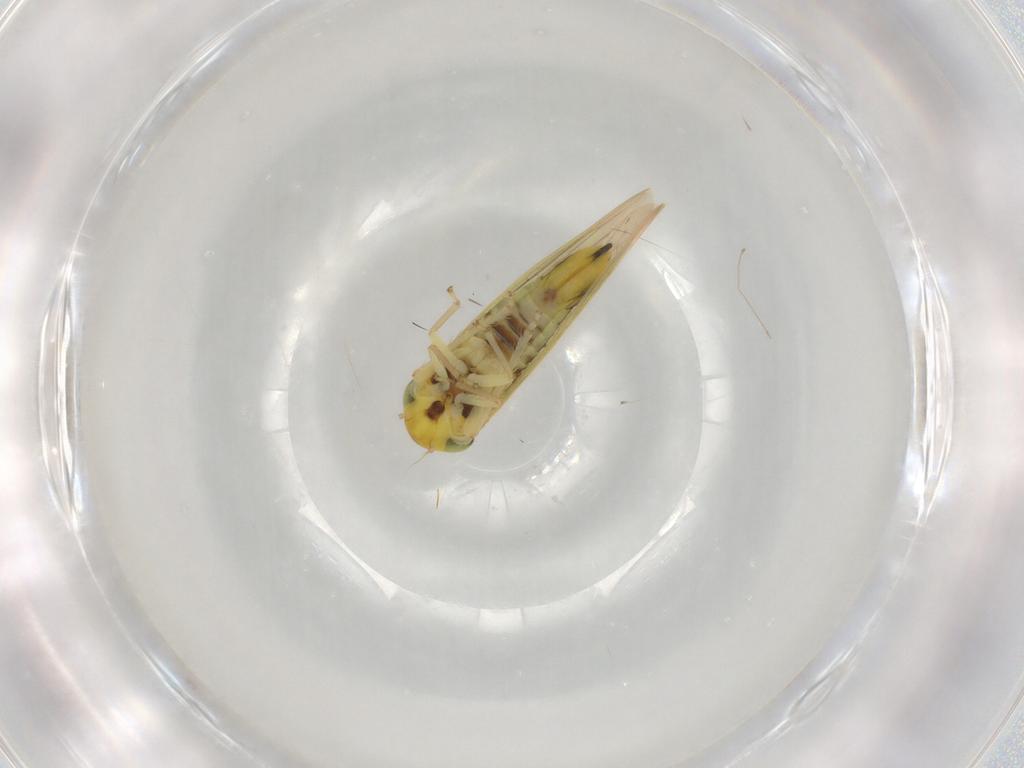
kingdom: Animalia
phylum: Arthropoda
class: Insecta
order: Hemiptera
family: Cicadellidae
